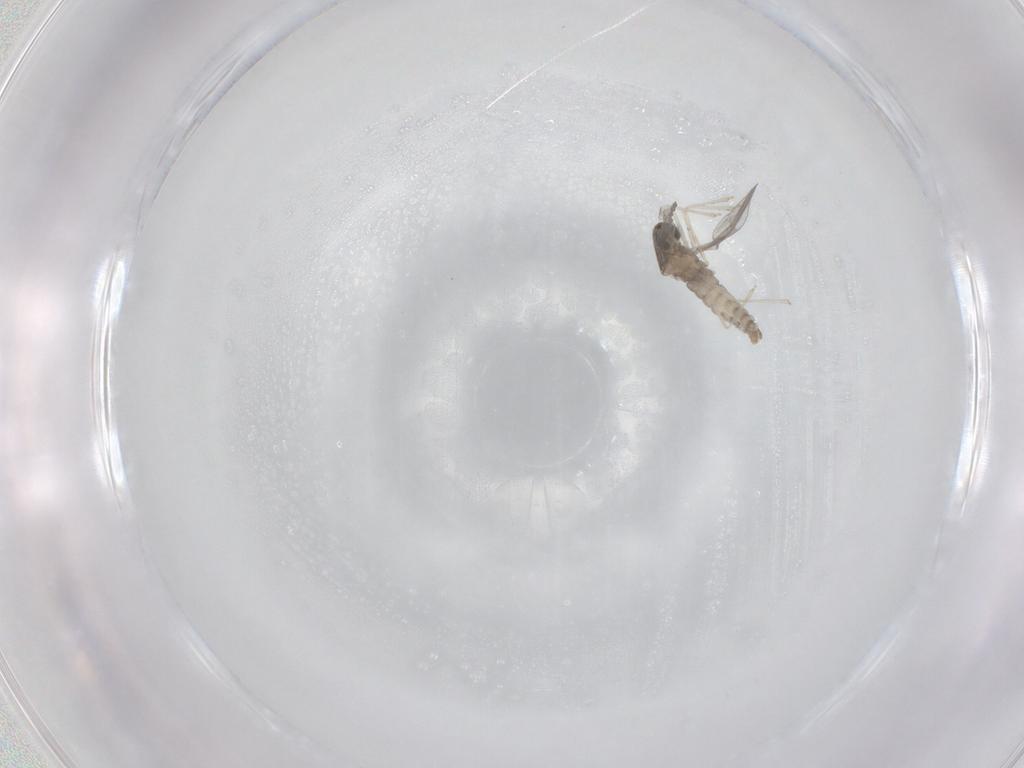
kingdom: Animalia
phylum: Arthropoda
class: Insecta
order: Diptera
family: Cecidomyiidae
